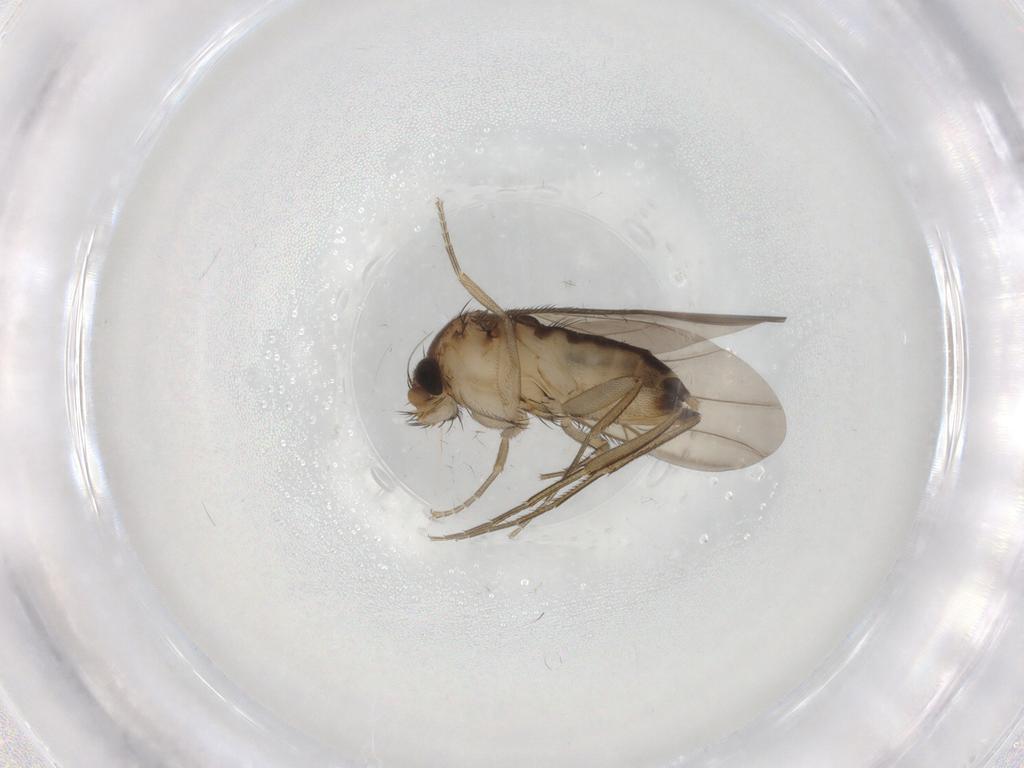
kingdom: Animalia
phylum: Arthropoda
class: Insecta
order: Diptera
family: Phoridae
